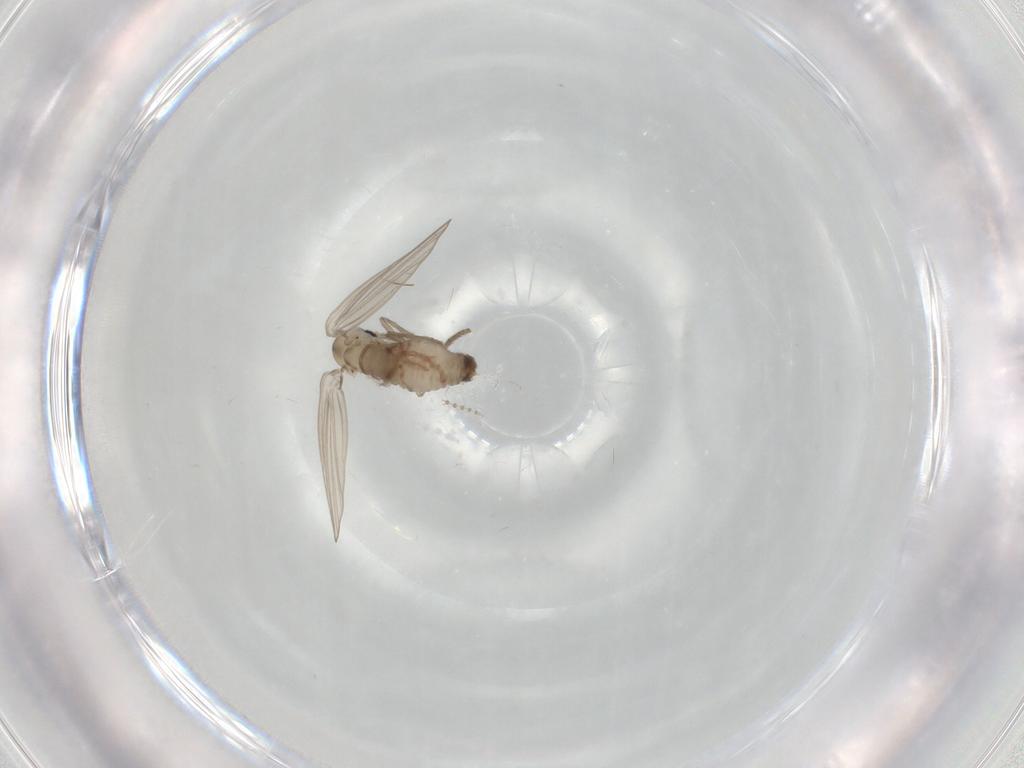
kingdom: Animalia
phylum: Arthropoda
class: Insecta
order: Diptera
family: Psychodidae
